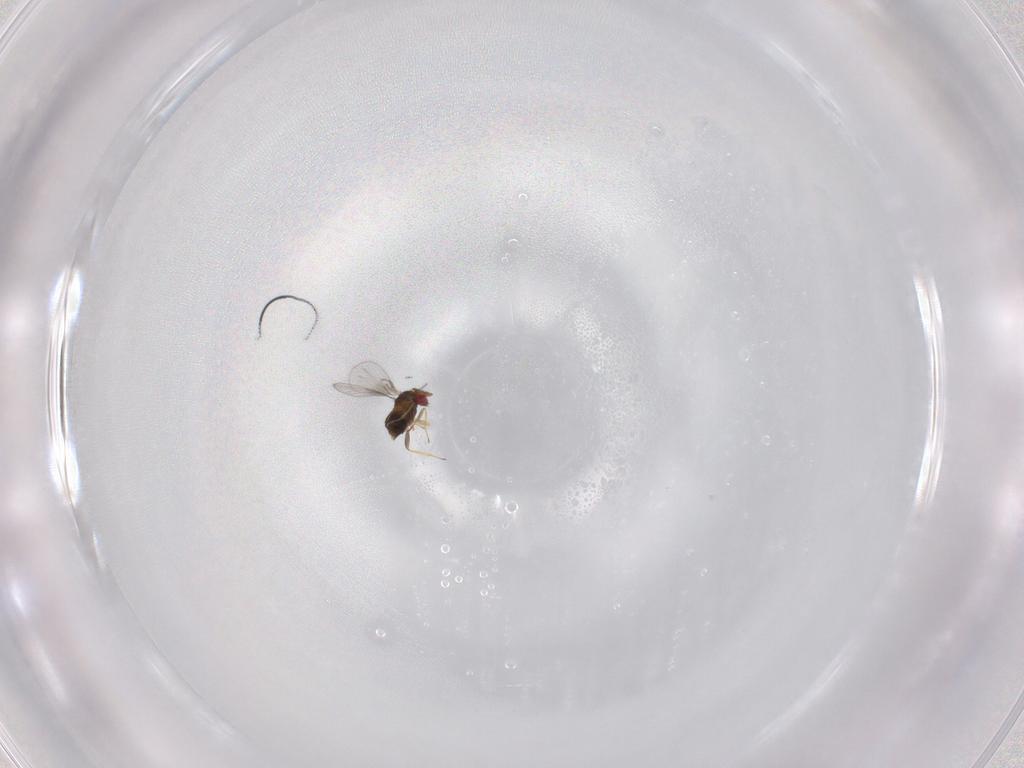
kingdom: Animalia
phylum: Arthropoda
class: Insecta
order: Hymenoptera
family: Trichogrammatidae
